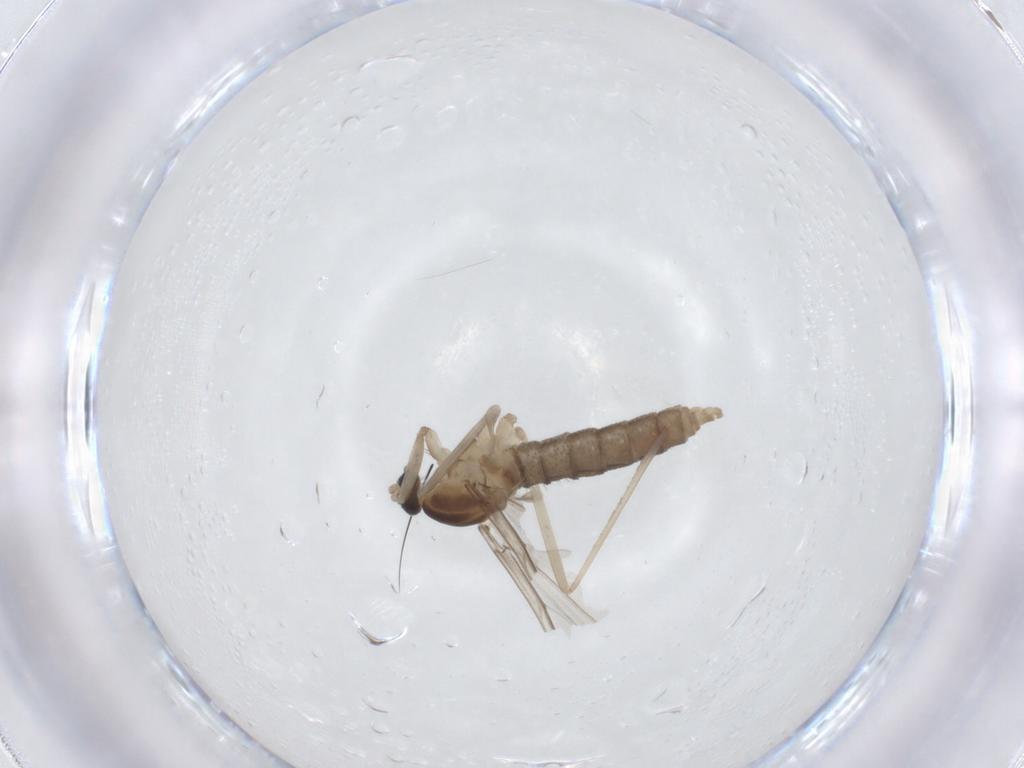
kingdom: Animalia
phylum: Arthropoda
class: Insecta
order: Diptera
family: Cecidomyiidae
